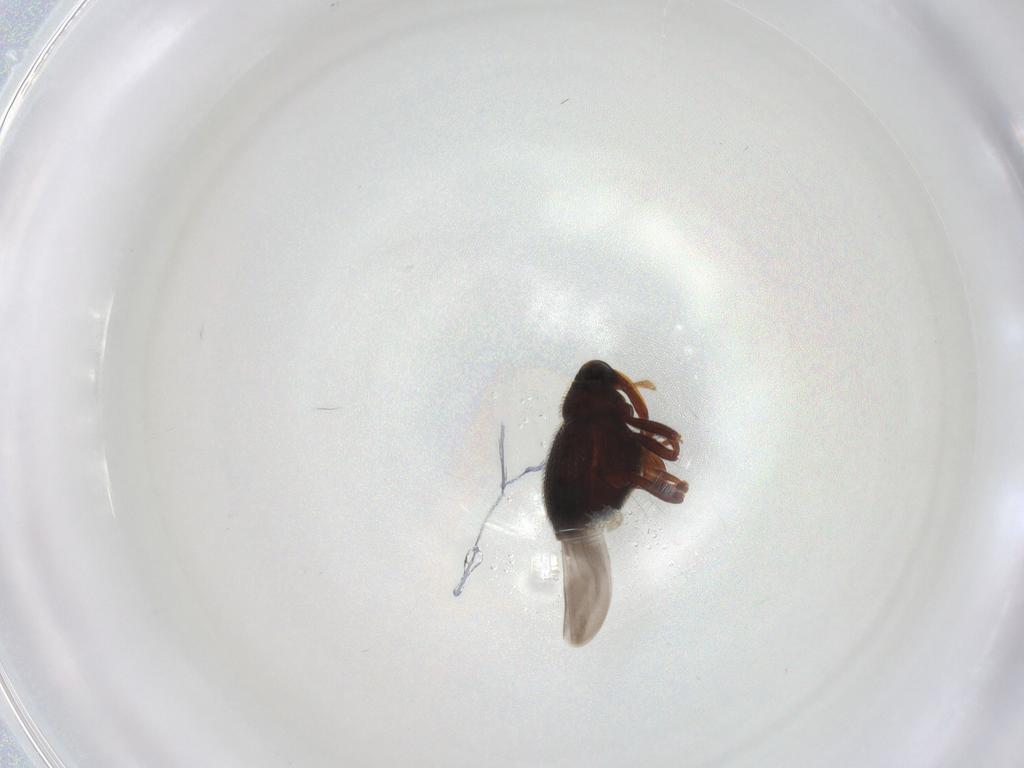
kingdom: Animalia
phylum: Arthropoda
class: Insecta
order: Coleoptera
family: Curculionidae
